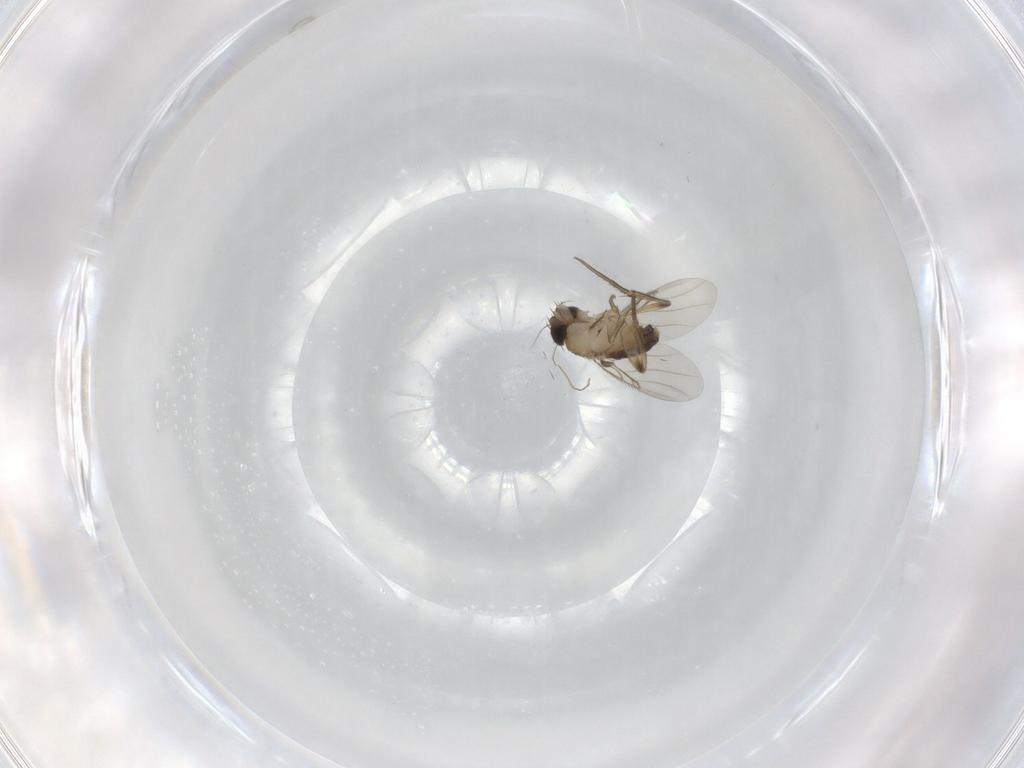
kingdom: Animalia
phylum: Arthropoda
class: Insecta
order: Diptera
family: Phoridae
